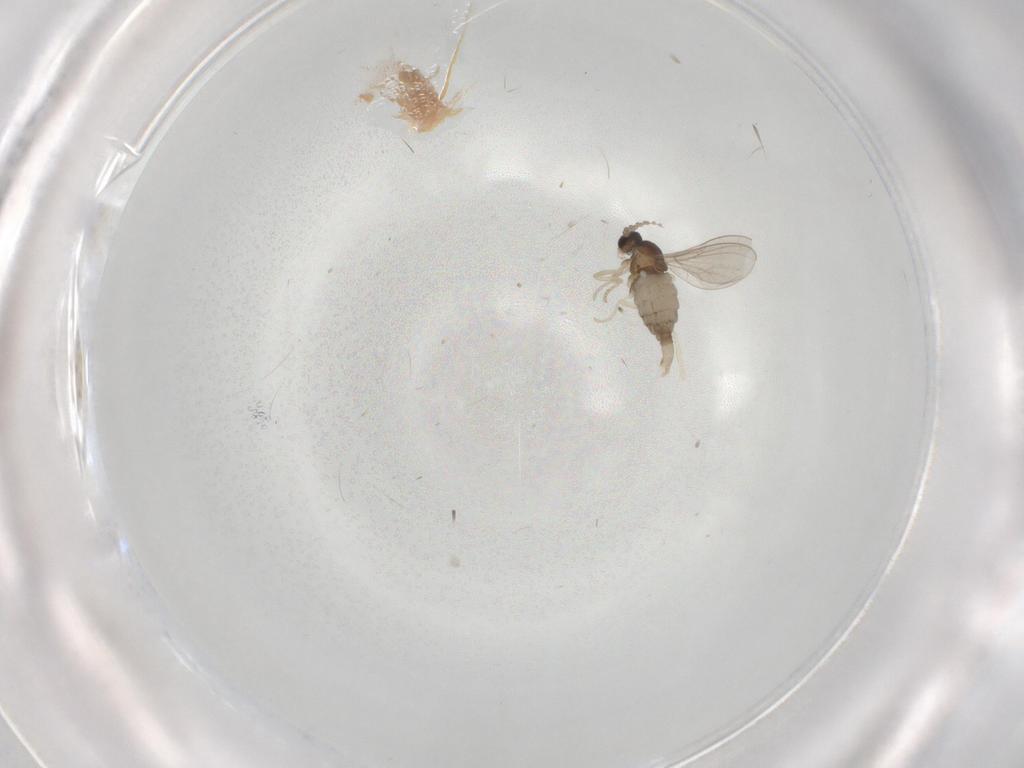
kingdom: Animalia
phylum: Arthropoda
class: Insecta
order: Diptera
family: Cecidomyiidae
